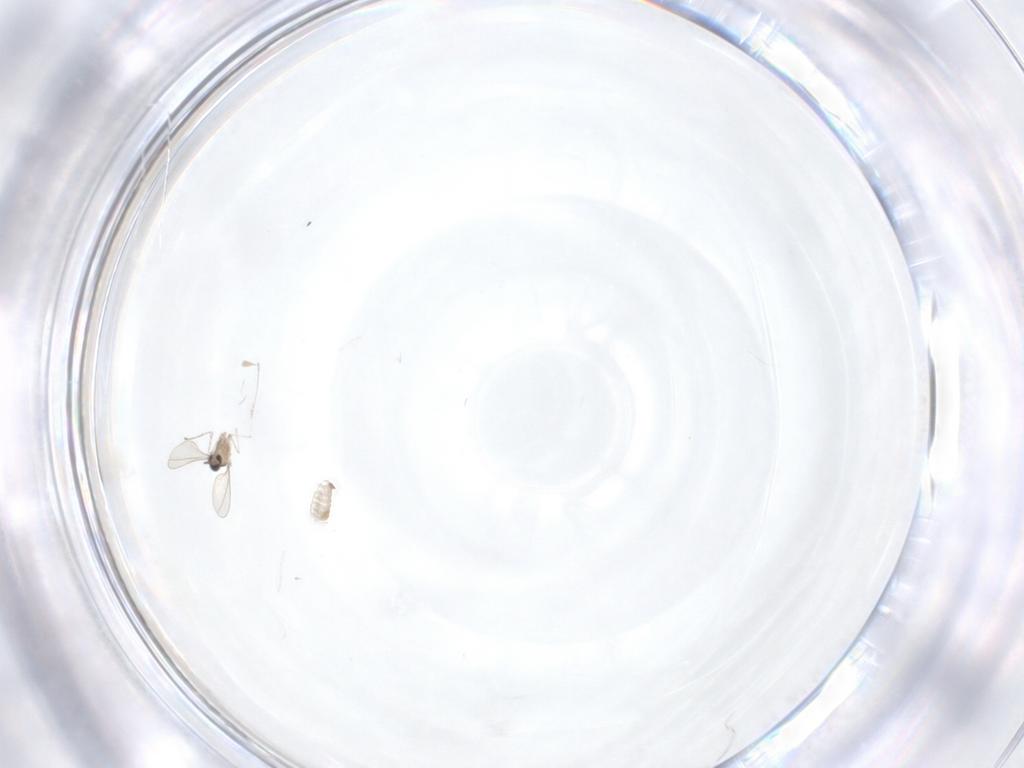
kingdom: Animalia
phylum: Arthropoda
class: Insecta
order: Diptera
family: Cecidomyiidae
